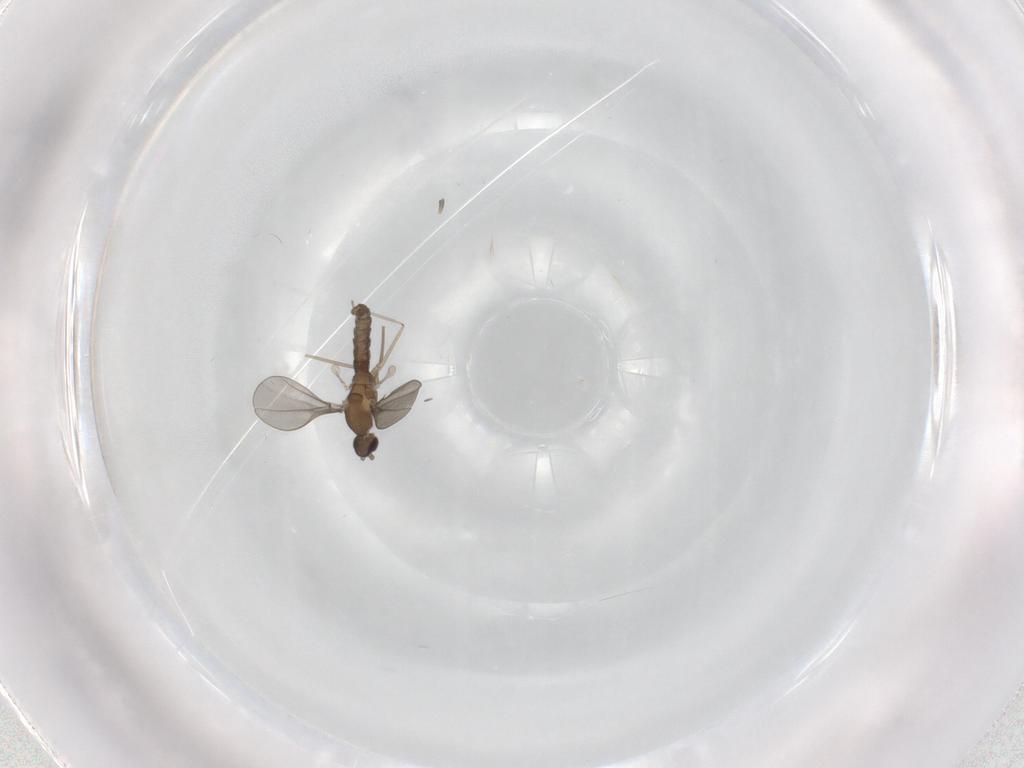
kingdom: Animalia
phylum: Arthropoda
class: Insecta
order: Diptera
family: Cecidomyiidae
